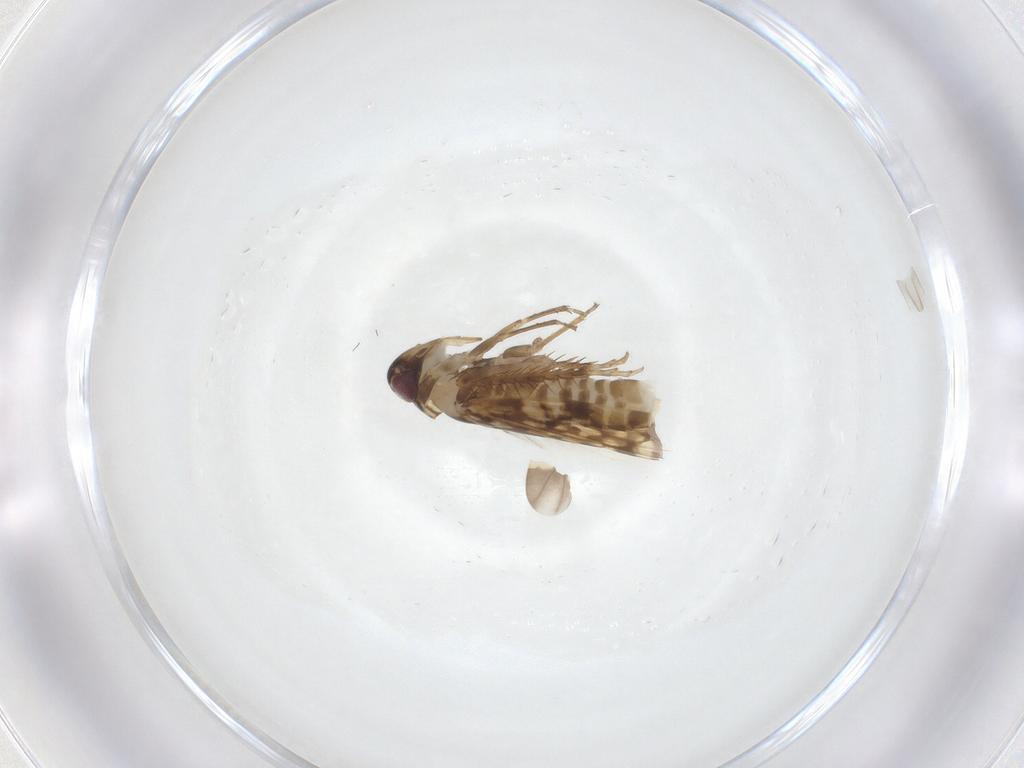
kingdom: Animalia
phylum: Arthropoda
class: Insecta
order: Hemiptera
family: Cicadellidae
